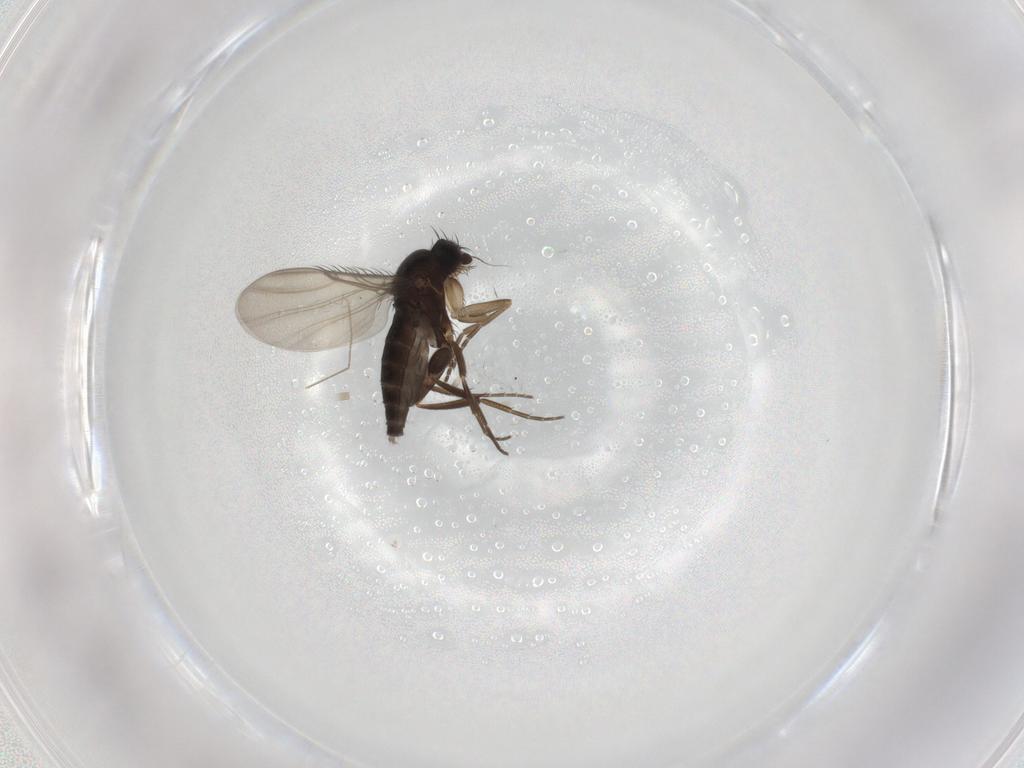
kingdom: Animalia
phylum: Arthropoda
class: Insecta
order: Diptera
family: Phoridae
